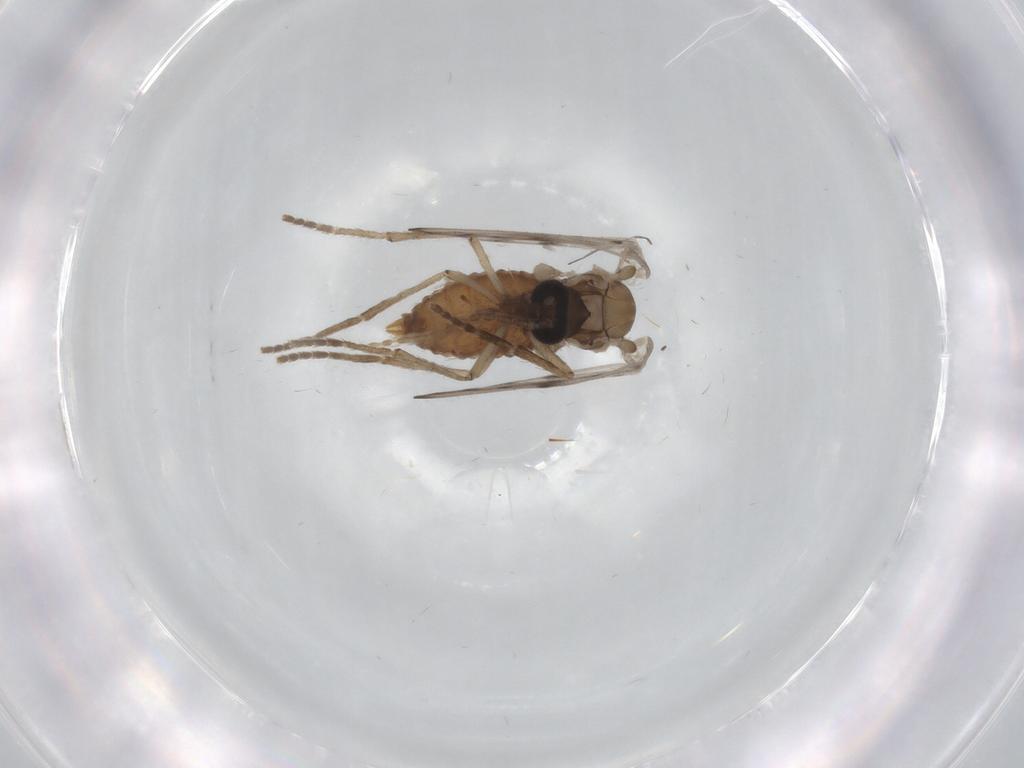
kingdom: Animalia
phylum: Arthropoda
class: Insecta
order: Diptera
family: Psychodidae
